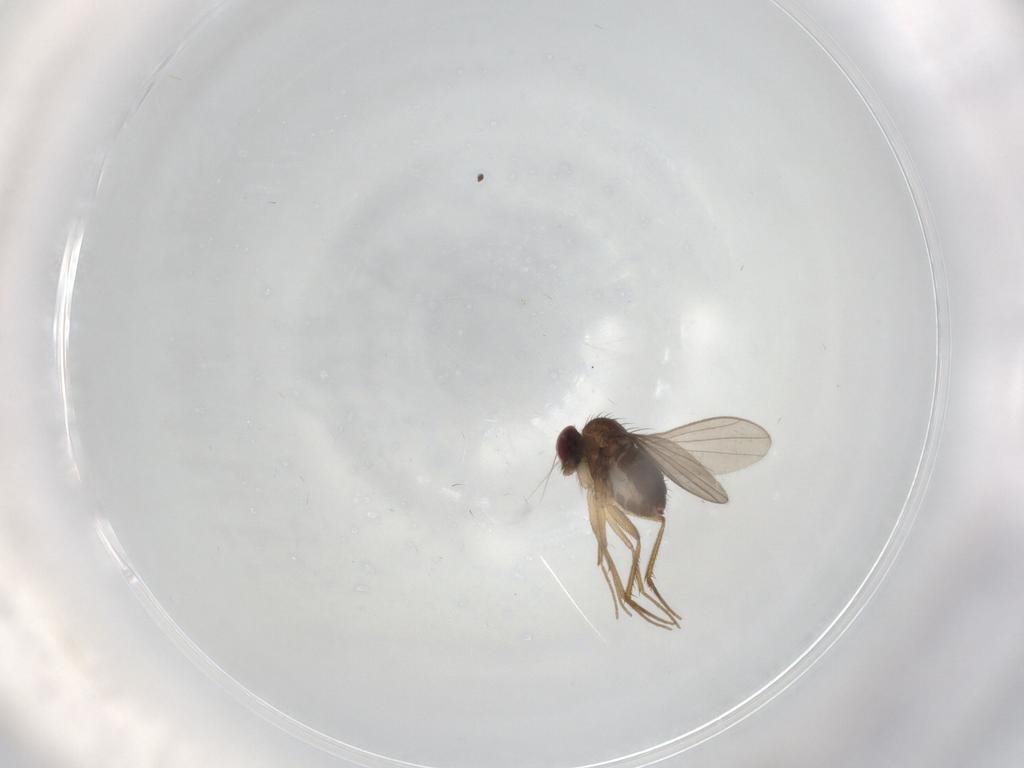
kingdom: Animalia
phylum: Arthropoda
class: Insecta
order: Diptera
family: Dolichopodidae
